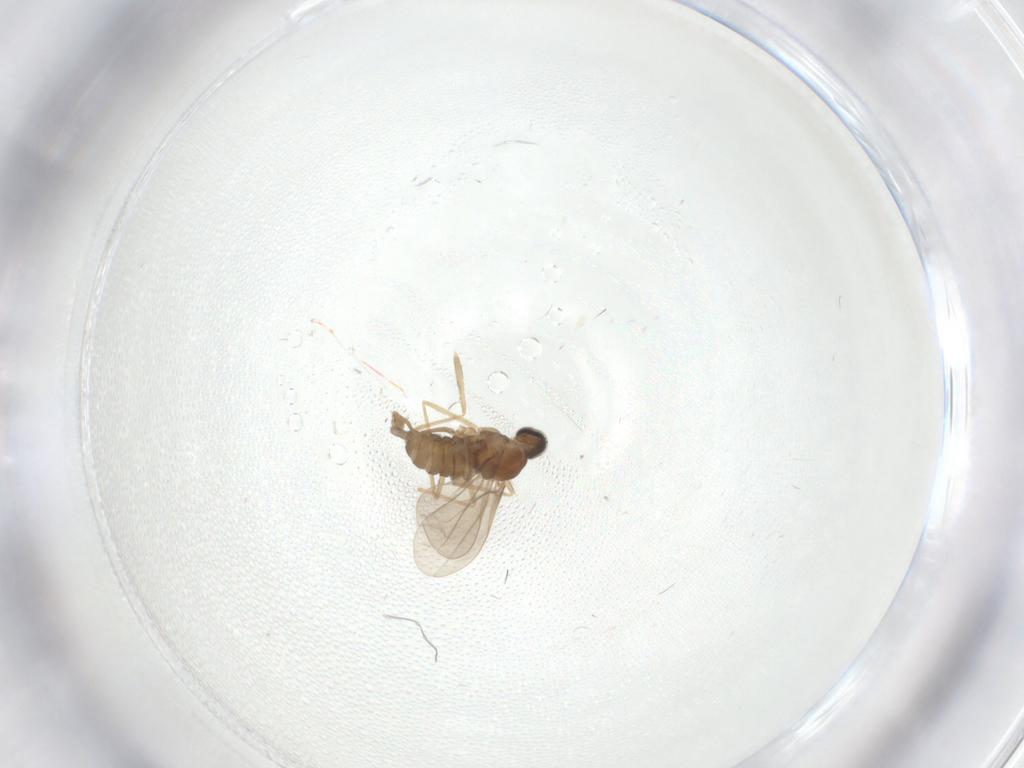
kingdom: Animalia
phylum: Arthropoda
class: Insecta
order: Diptera
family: Cecidomyiidae
